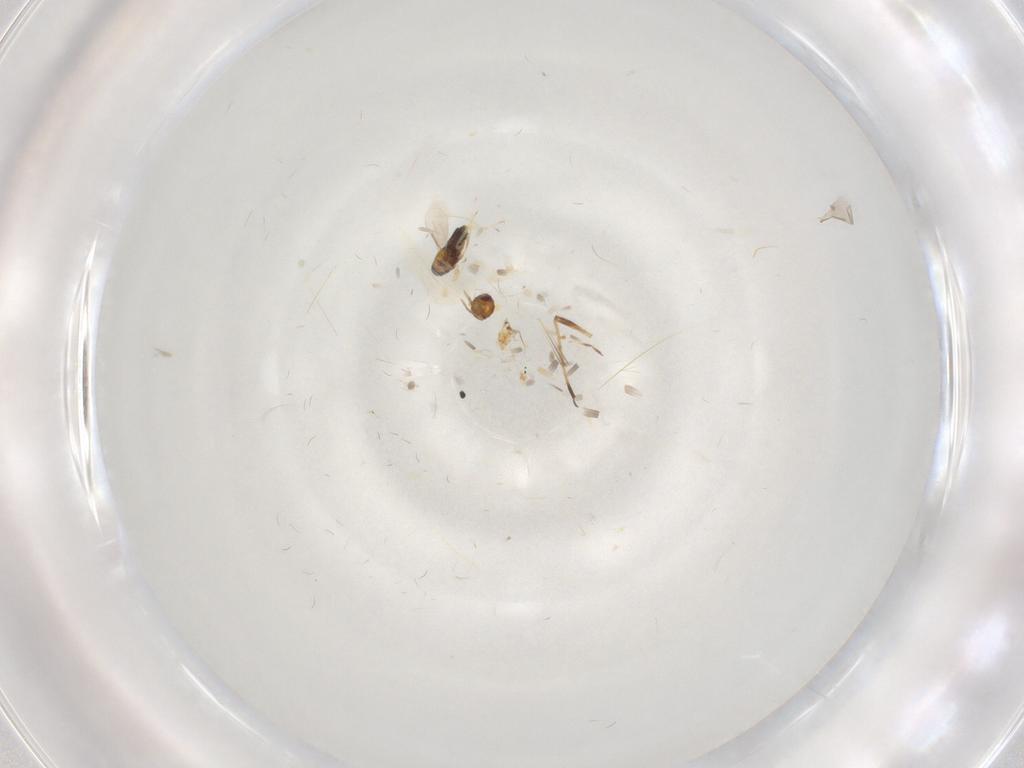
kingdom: Animalia
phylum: Arthropoda
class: Insecta
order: Hymenoptera
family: Aphelinidae
